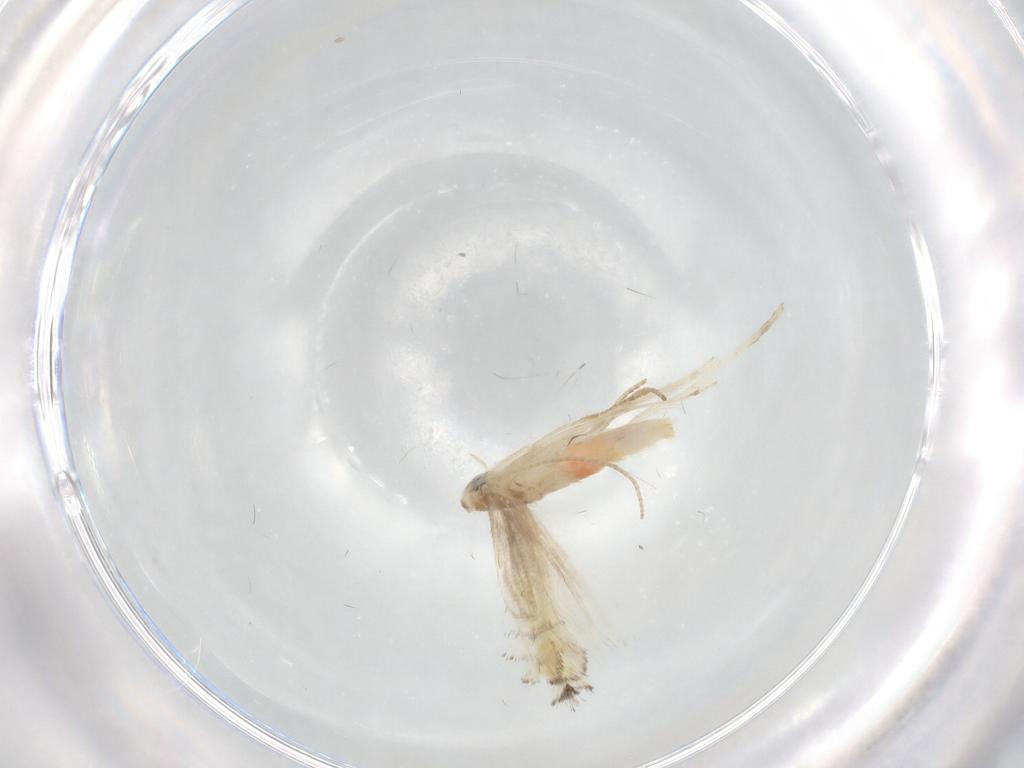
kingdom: Animalia
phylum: Arthropoda
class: Insecta
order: Lepidoptera
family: Gracillariidae
